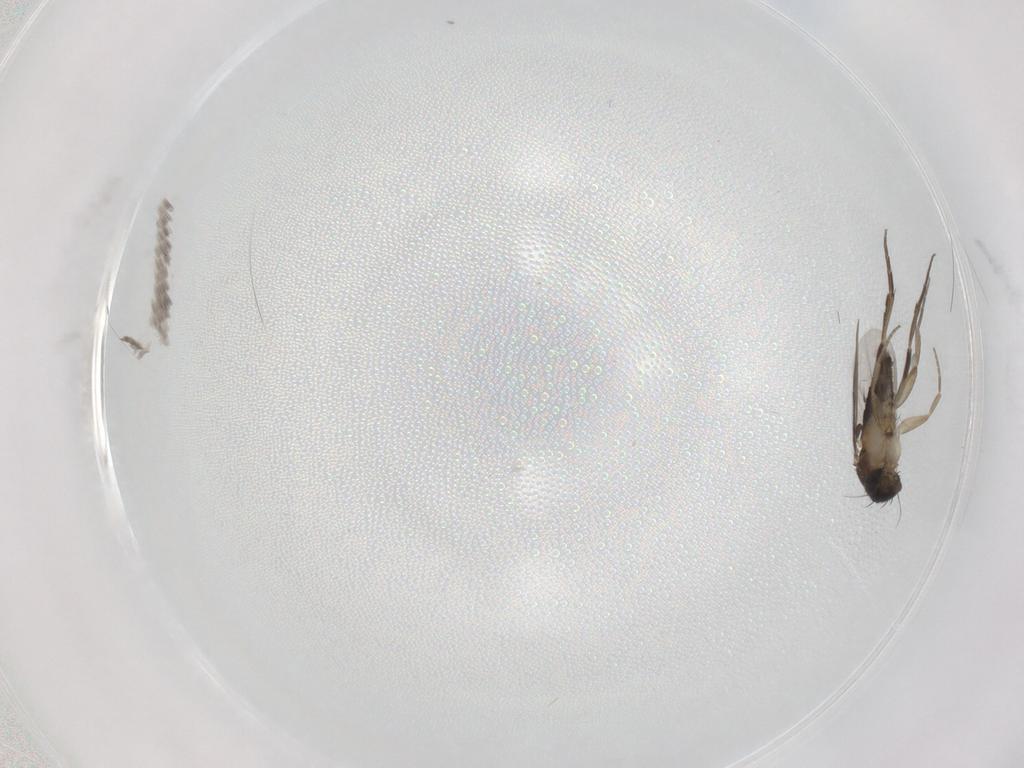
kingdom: Animalia
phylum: Arthropoda
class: Insecta
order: Diptera
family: Phoridae
